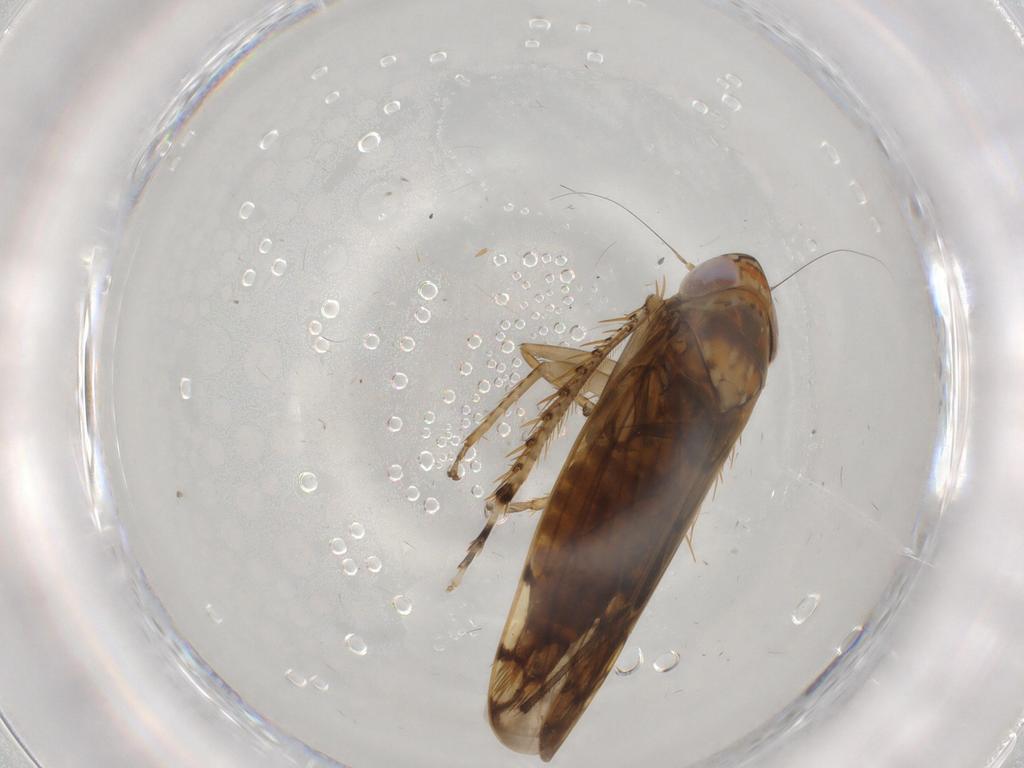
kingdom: Animalia
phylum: Arthropoda
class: Insecta
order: Hemiptera
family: Cicadellidae
